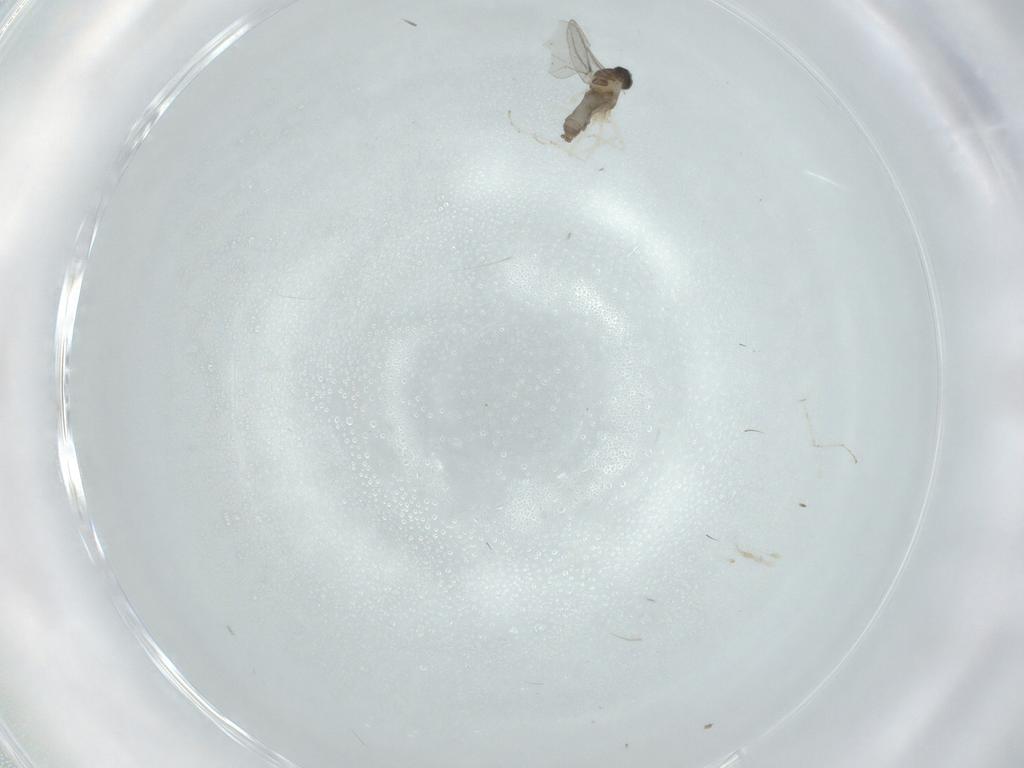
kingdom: Animalia
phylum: Arthropoda
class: Insecta
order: Diptera
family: Cecidomyiidae
